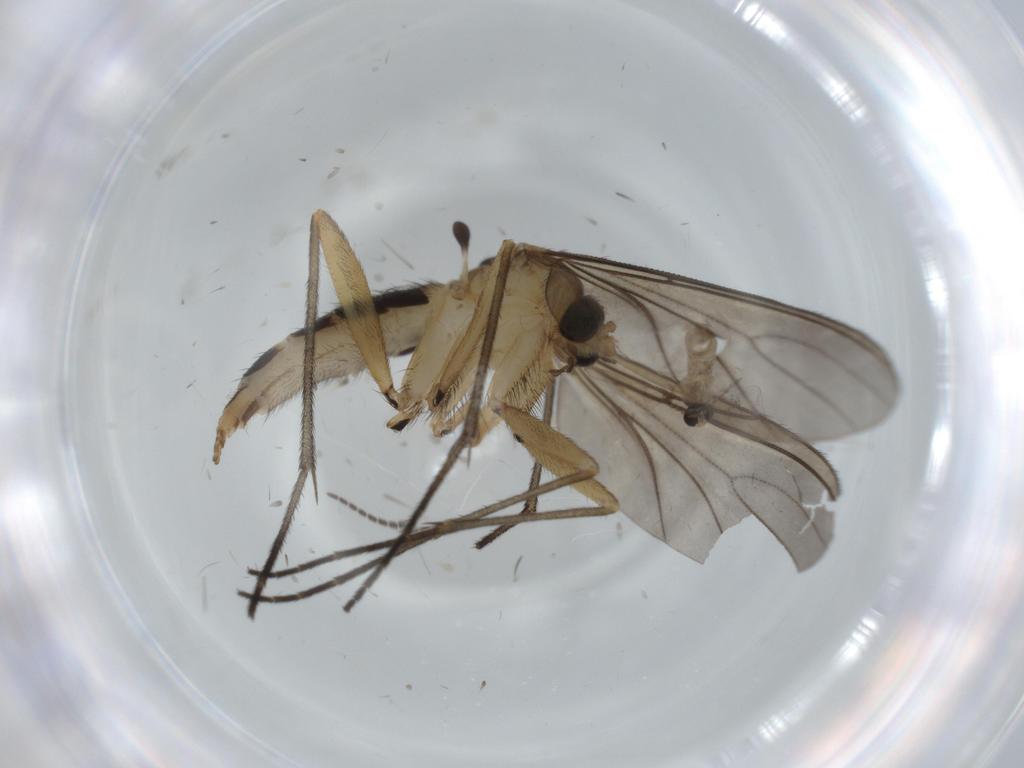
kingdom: Animalia
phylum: Arthropoda
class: Insecta
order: Diptera
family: Sciaridae
